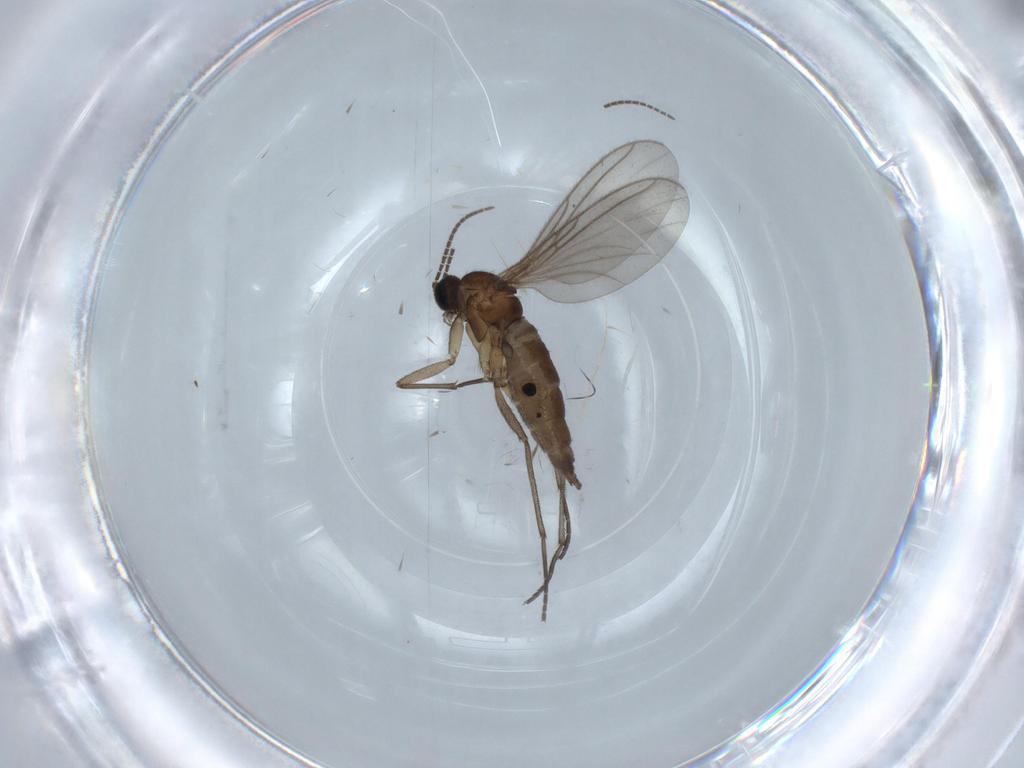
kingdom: Animalia
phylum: Arthropoda
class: Insecta
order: Diptera
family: Sciaridae
